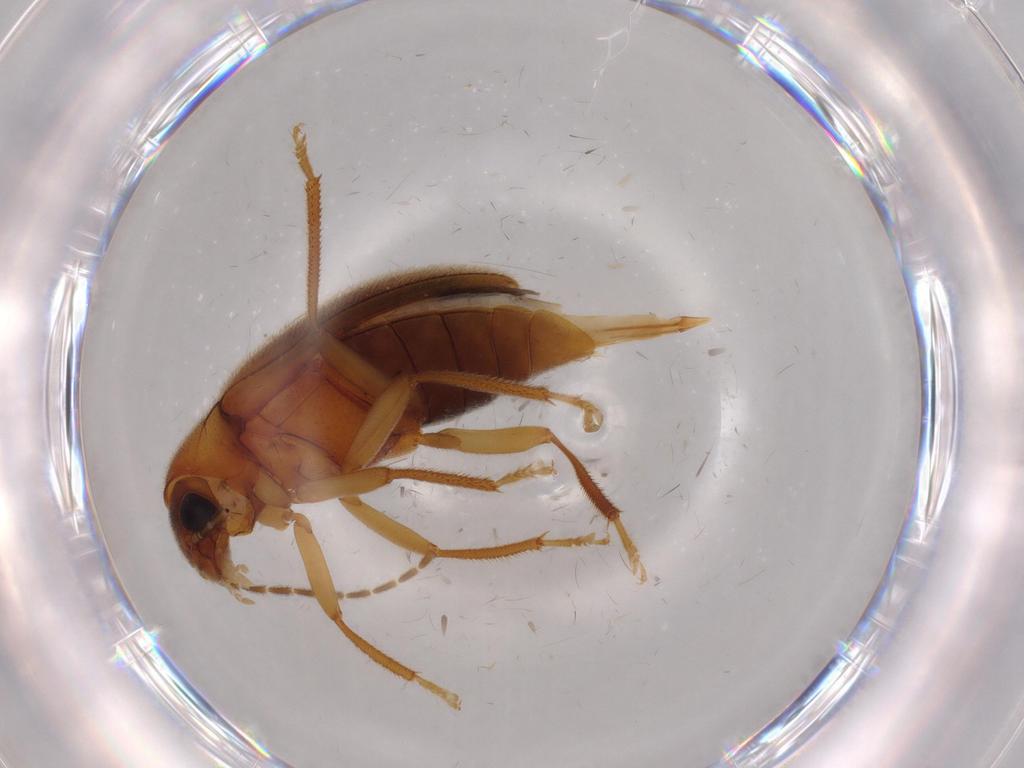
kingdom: Animalia
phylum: Arthropoda
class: Insecta
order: Coleoptera
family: Ptilodactylidae
